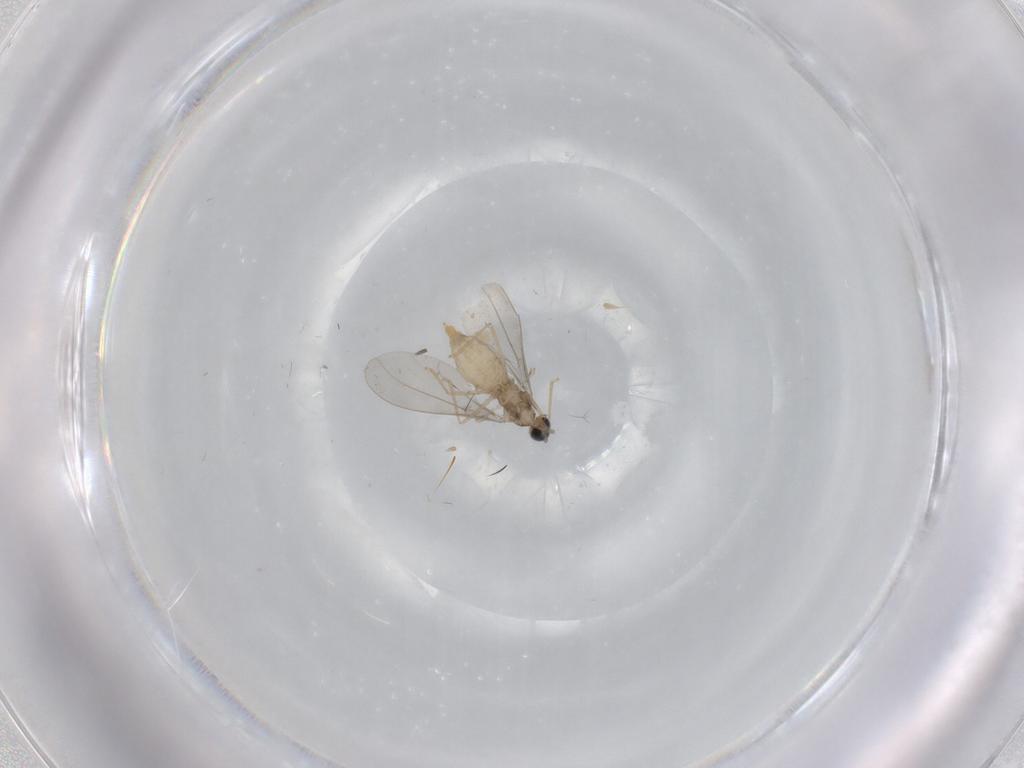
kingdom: Animalia
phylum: Arthropoda
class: Insecta
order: Diptera
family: Cecidomyiidae
